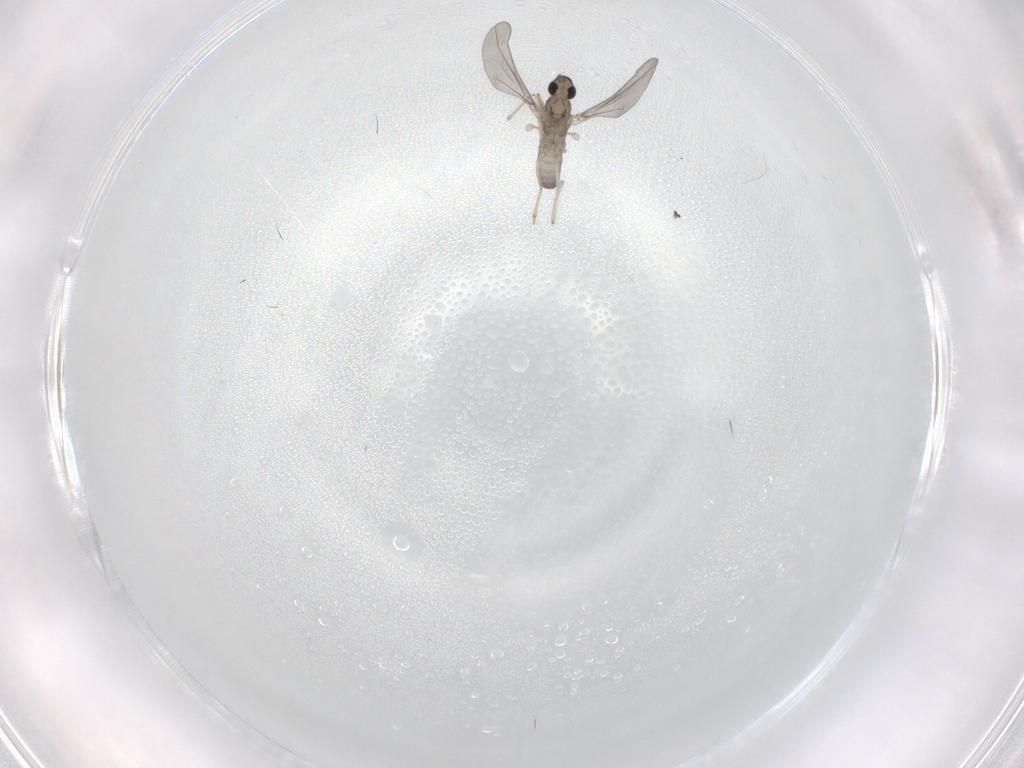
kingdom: Animalia
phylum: Arthropoda
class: Insecta
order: Diptera
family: Cecidomyiidae
